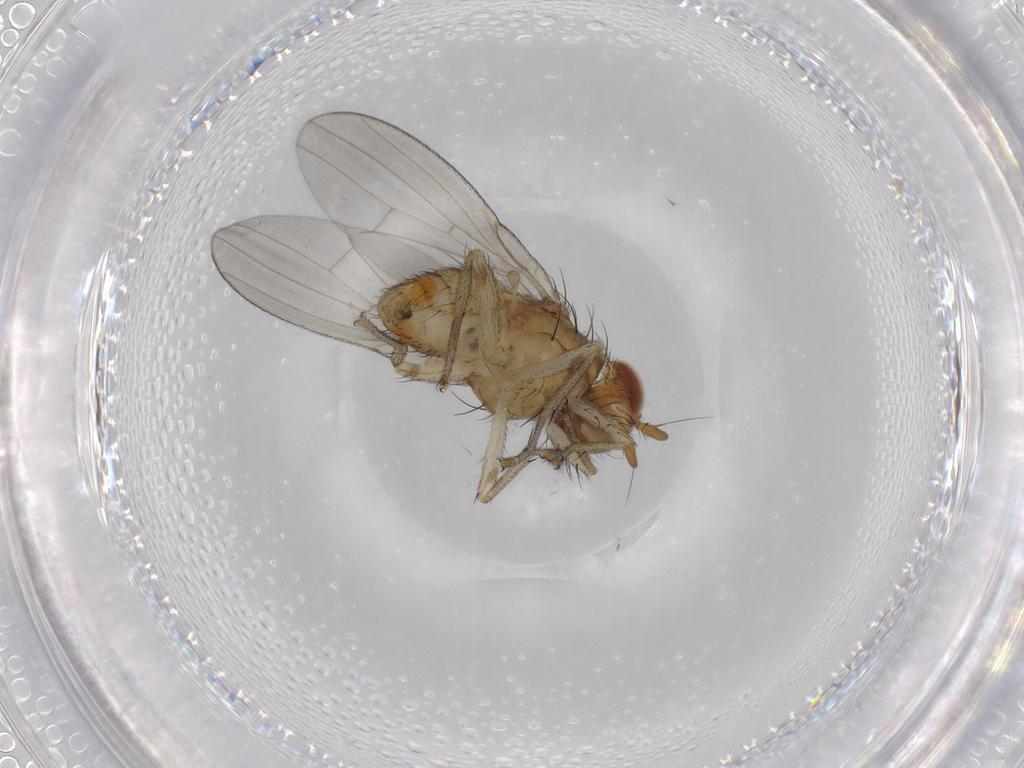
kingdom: Animalia
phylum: Arthropoda
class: Insecta
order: Diptera
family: Lauxaniidae
